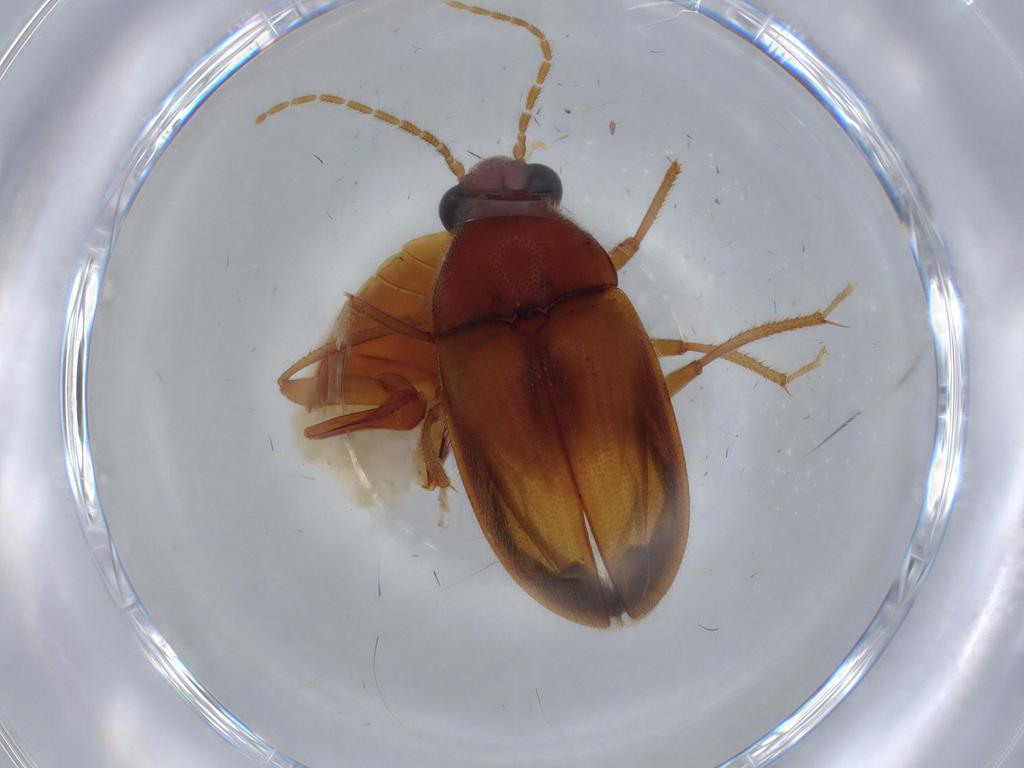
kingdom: Animalia
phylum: Arthropoda
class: Insecta
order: Coleoptera
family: Ptilodactylidae
